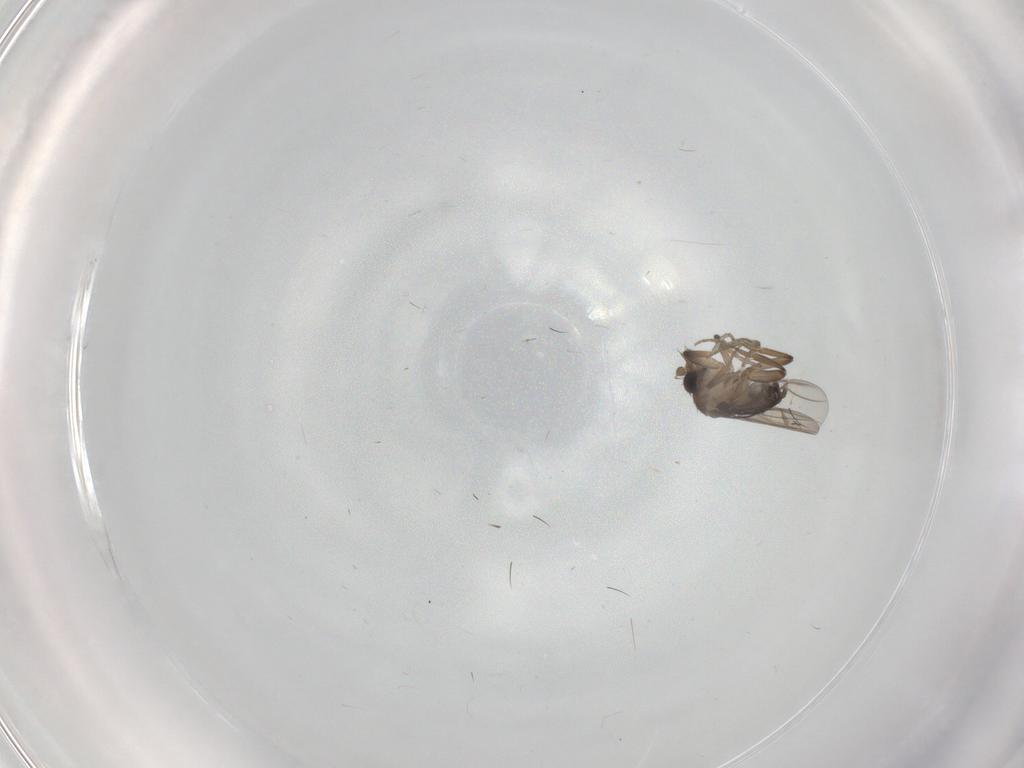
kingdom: Animalia
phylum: Arthropoda
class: Insecta
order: Diptera
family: Phoridae
